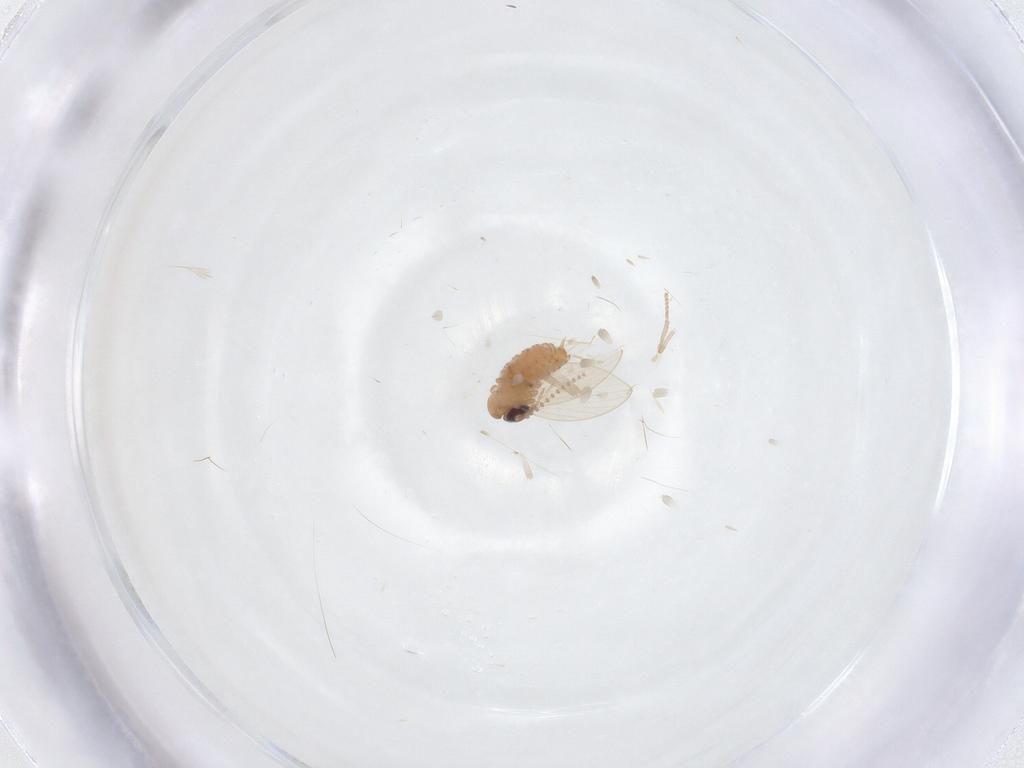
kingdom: Animalia
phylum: Arthropoda
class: Insecta
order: Diptera
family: Psychodidae
